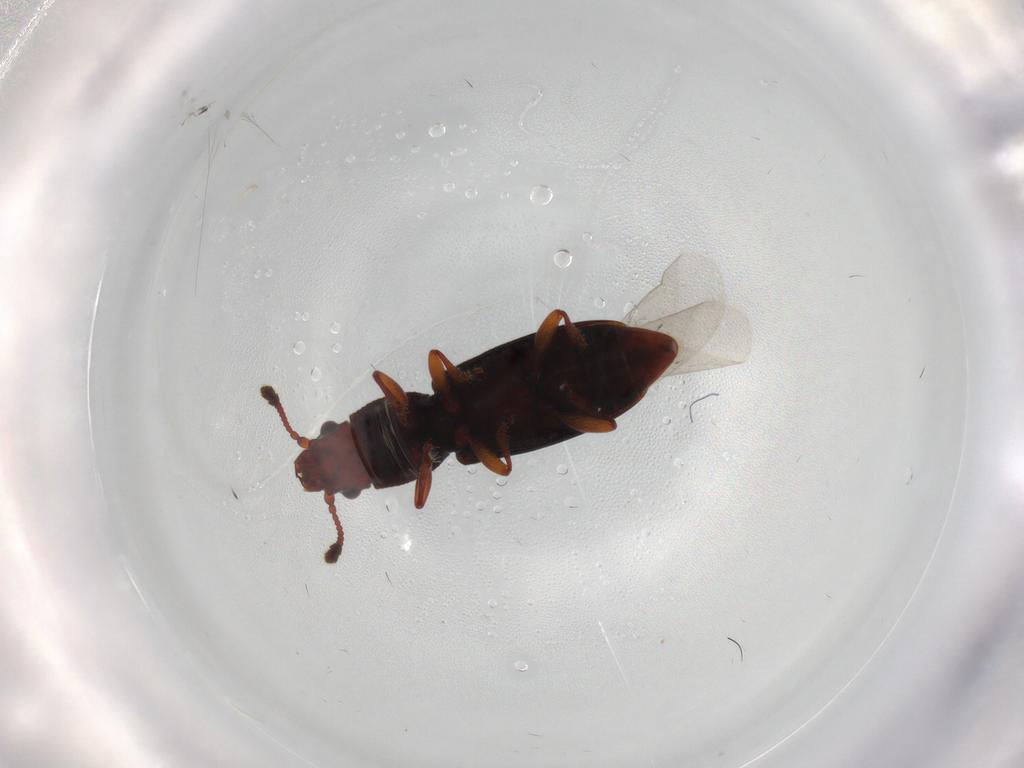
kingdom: Animalia
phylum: Arthropoda
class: Insecta
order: Coleoptera
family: Monotomidae
